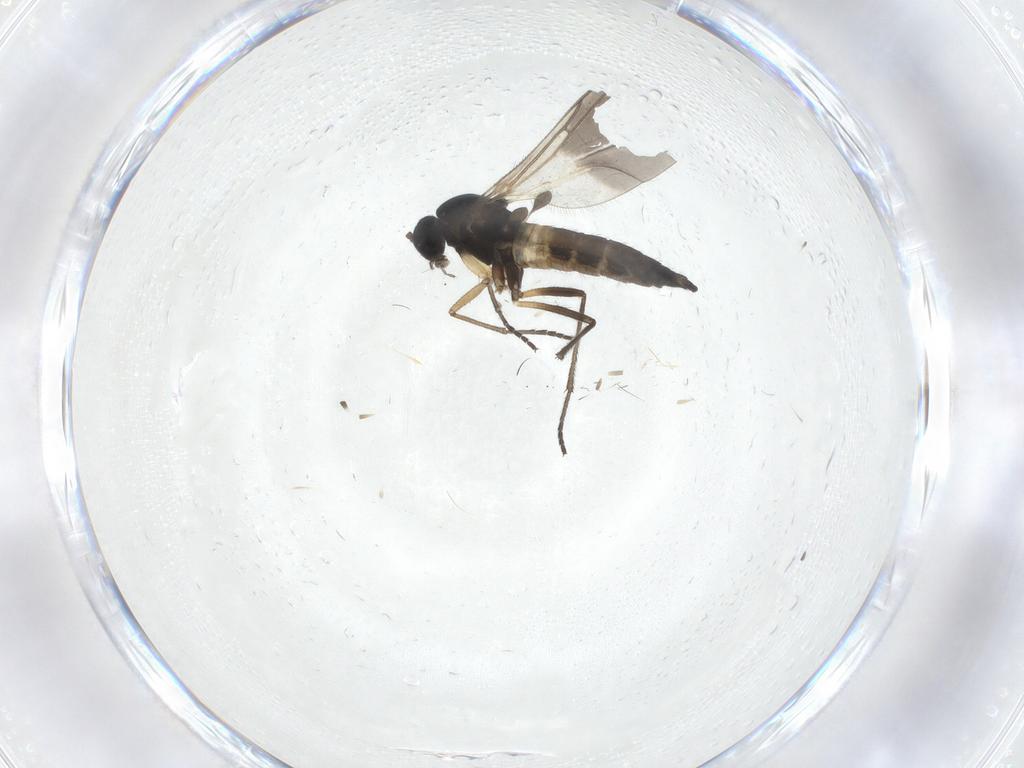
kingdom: Animalia
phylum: Arthropoda
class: Insecta
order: Diptera
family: Sciaridae
